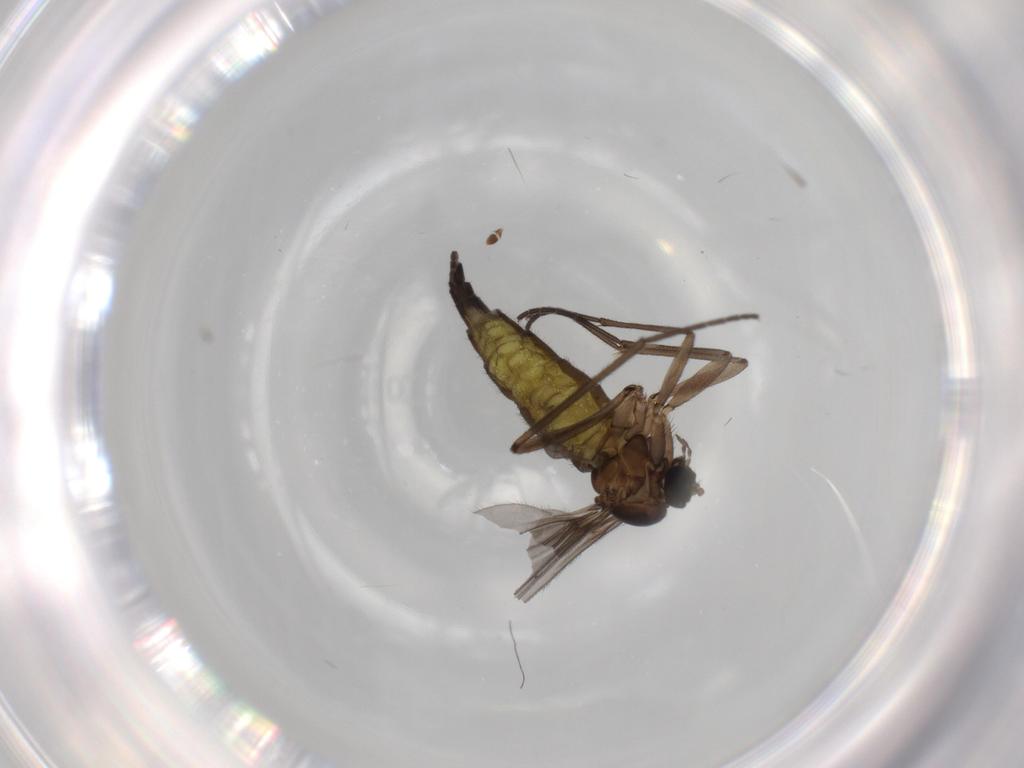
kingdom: Animalia
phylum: Arthropoda
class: Insecta
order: Diptera
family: Sciaridae
